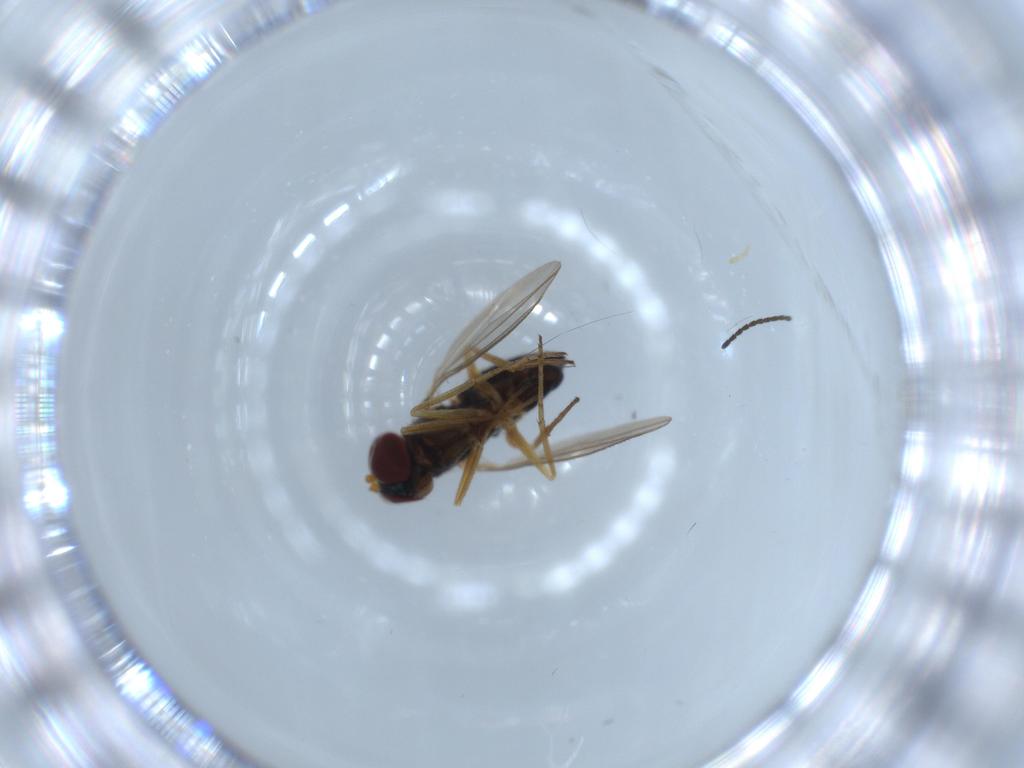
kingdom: Animalia
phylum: Arthropoda
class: Insecta
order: Diptera
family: Dolichopodidae
